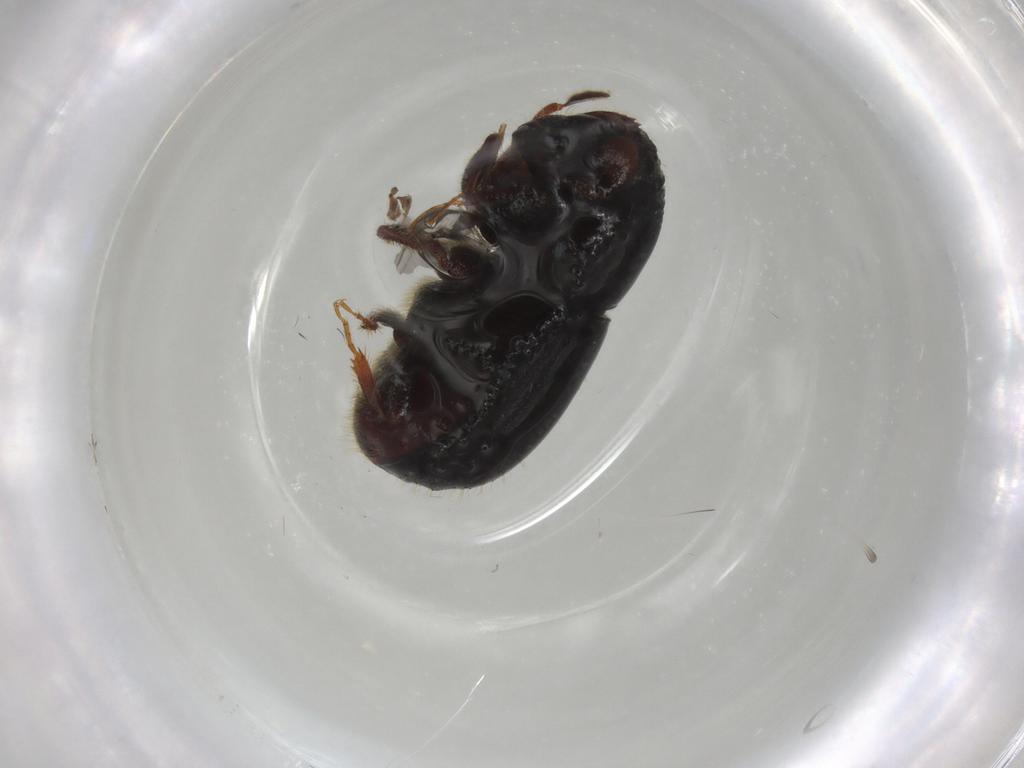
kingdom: Animalia
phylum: Arthropoda
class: Insecta
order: Coleoptera
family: Curculionidae
